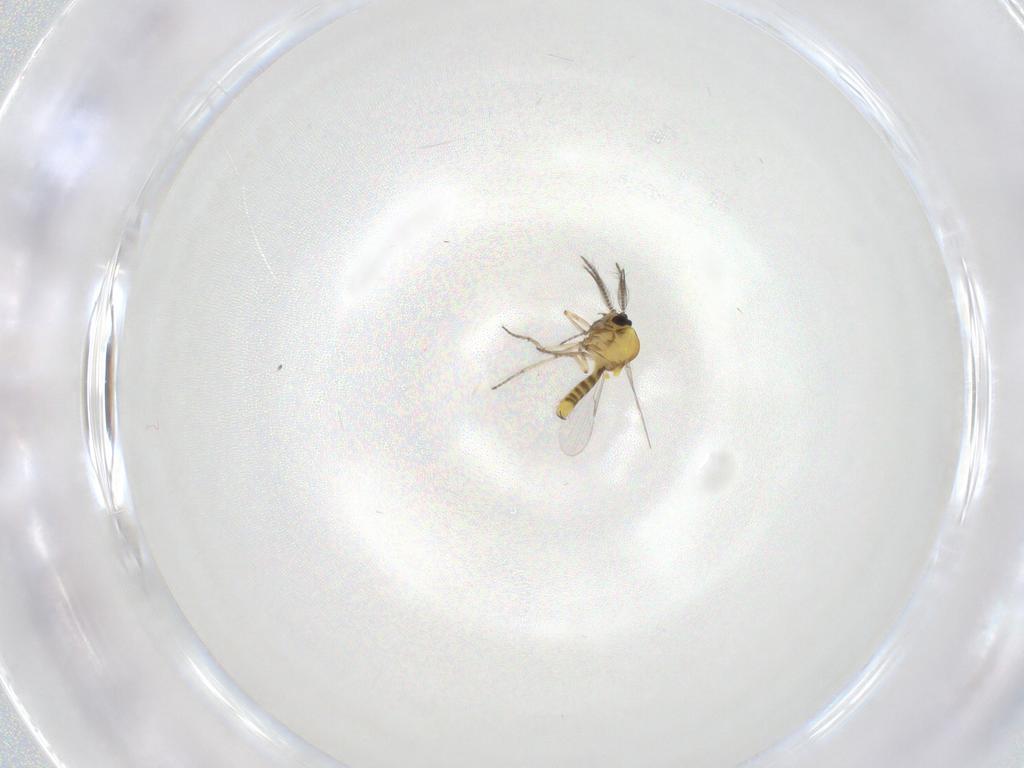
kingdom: Animalia
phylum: Arthropoda
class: Insecta
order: Diptera
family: Ceratopogonidae
